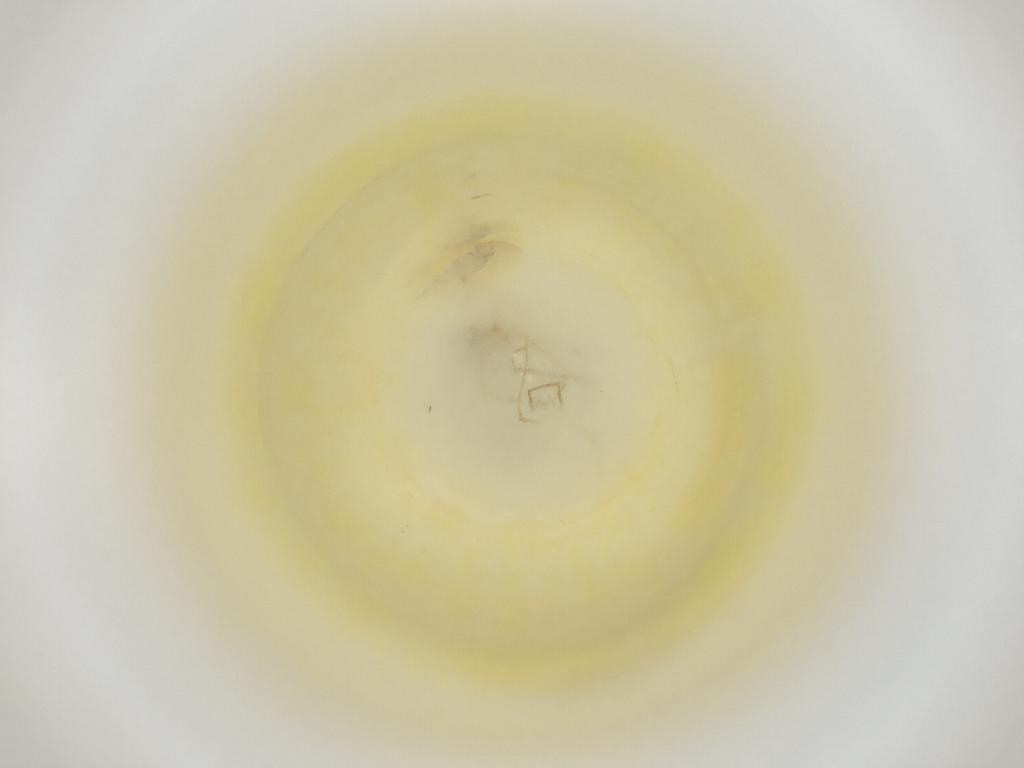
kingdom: Animalia
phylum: Arthropoda
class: Insecta
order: Diptera
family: Cecidomyiidae
